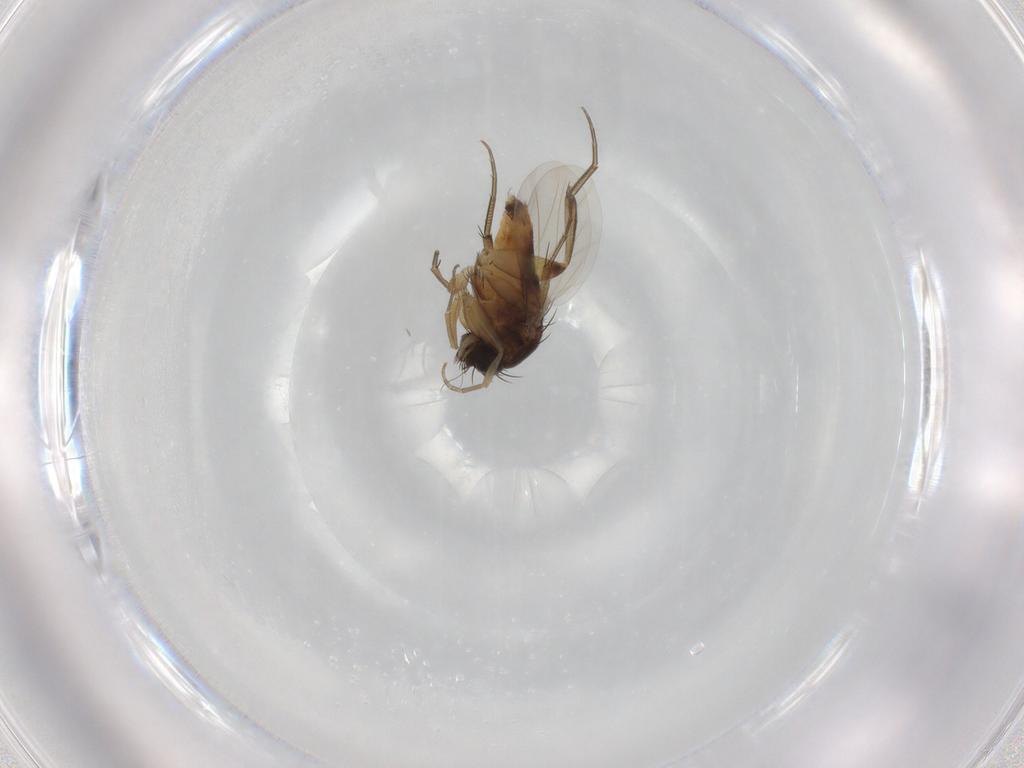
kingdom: Animalia
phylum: Arthropoda
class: Insecta
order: Diptera
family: Phoridae
